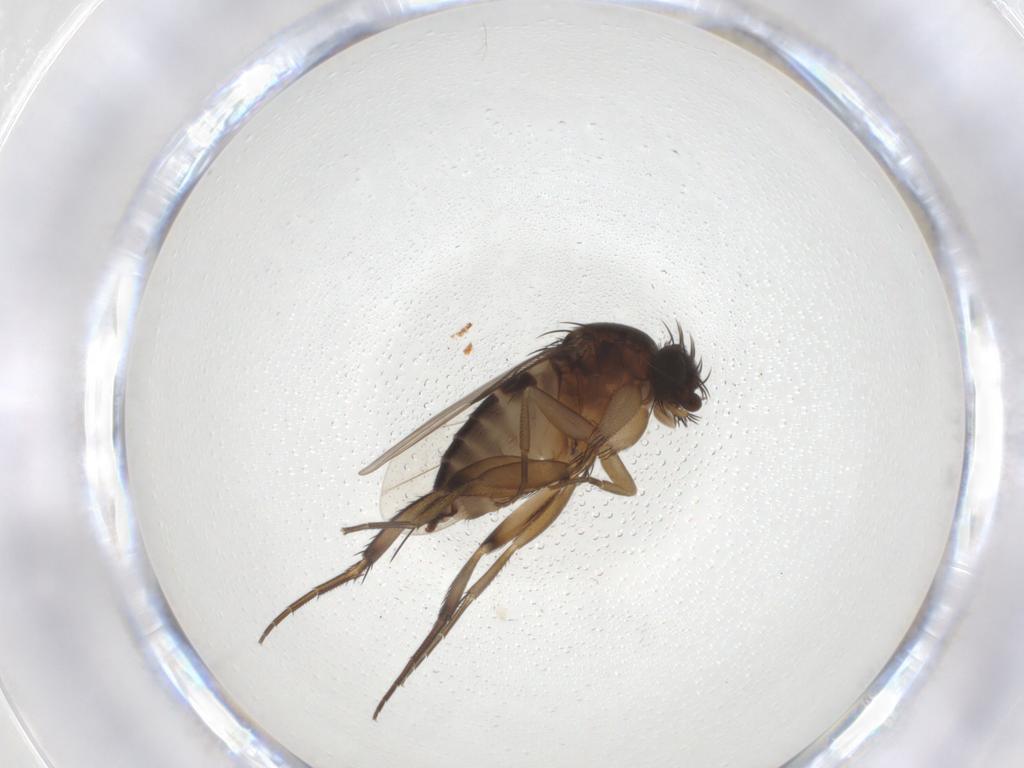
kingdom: Animalia
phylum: Arthropoda
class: Insecta
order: Diptera
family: Phoridae
